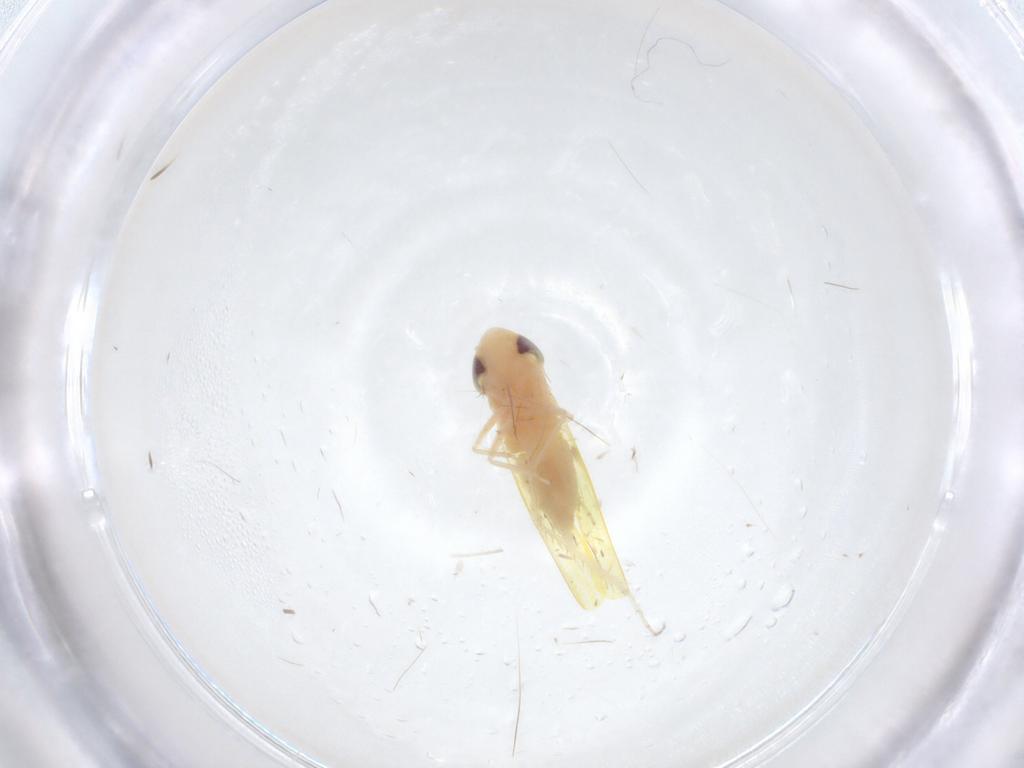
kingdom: Animalia
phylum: Arthropoda
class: Insecta
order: Hemiptera
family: Cicadellidae
